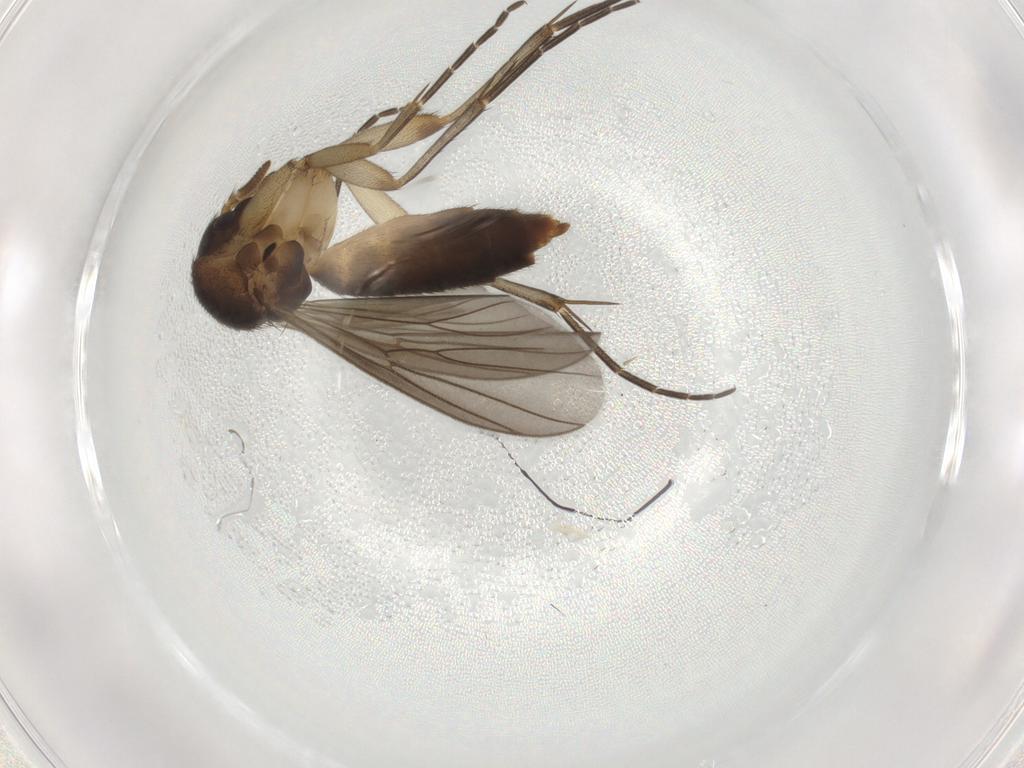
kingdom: Animalia
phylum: Arthropoda
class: Insecta
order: Diptera
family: Mycetophilidae
